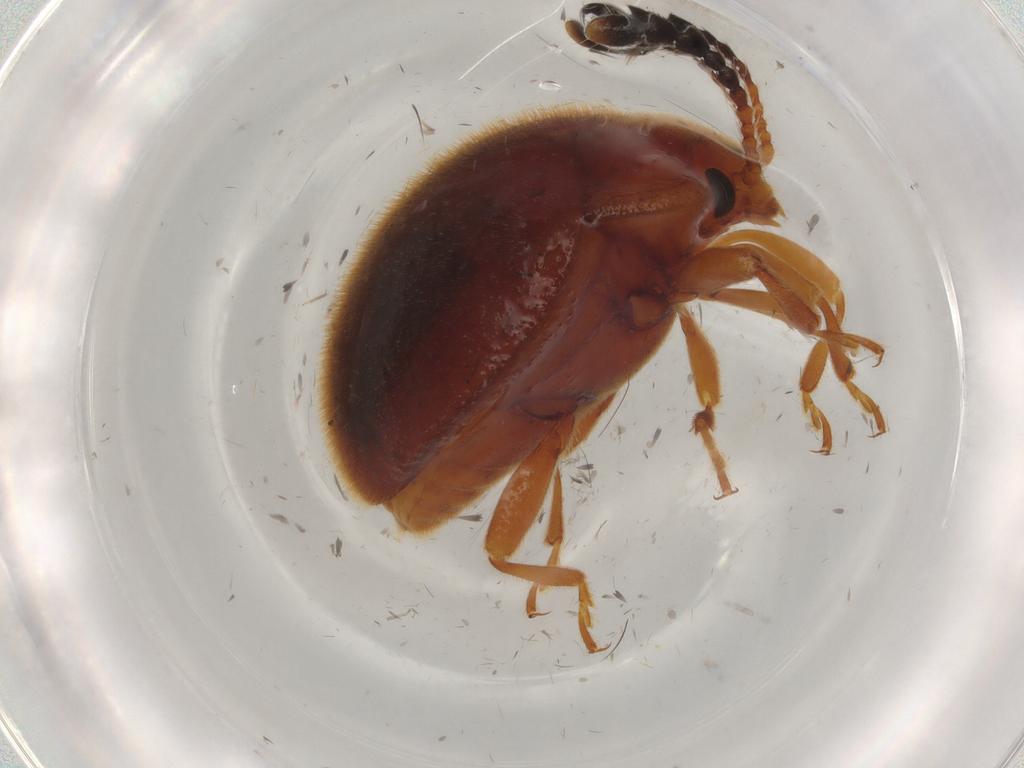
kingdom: Animalia
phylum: Arthropoda
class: Insecta
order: Coleoptera
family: Endomychidae
